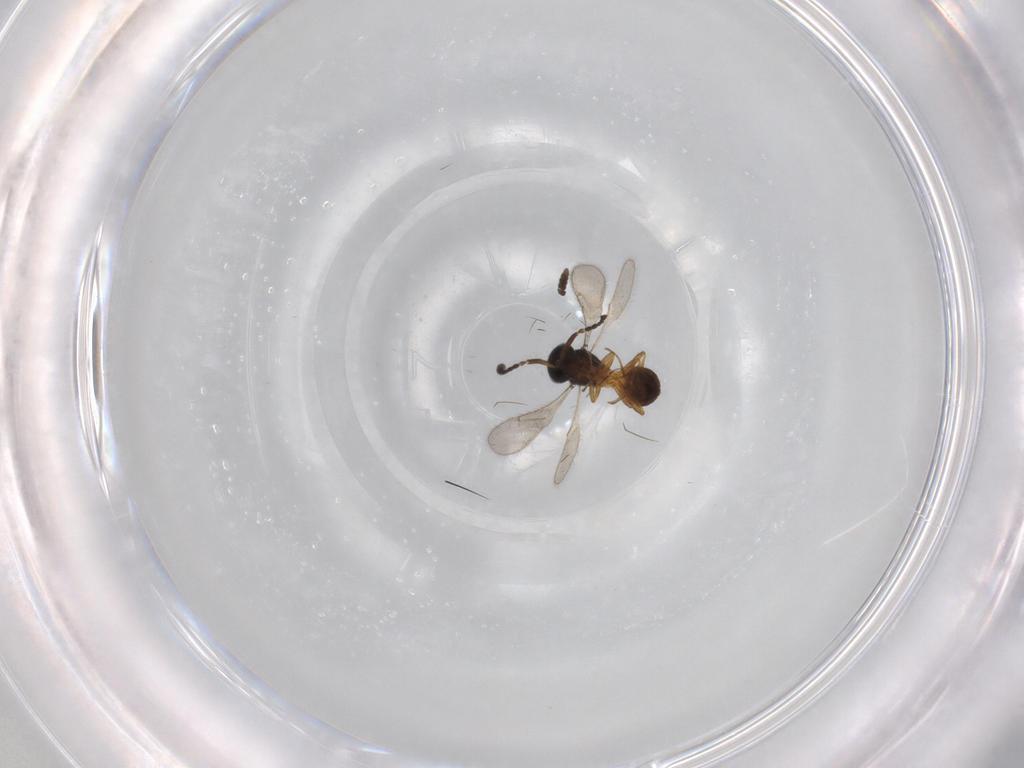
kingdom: Animalia
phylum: Arthropoda
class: Insecta
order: Hymenoptera
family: Scelionidae
